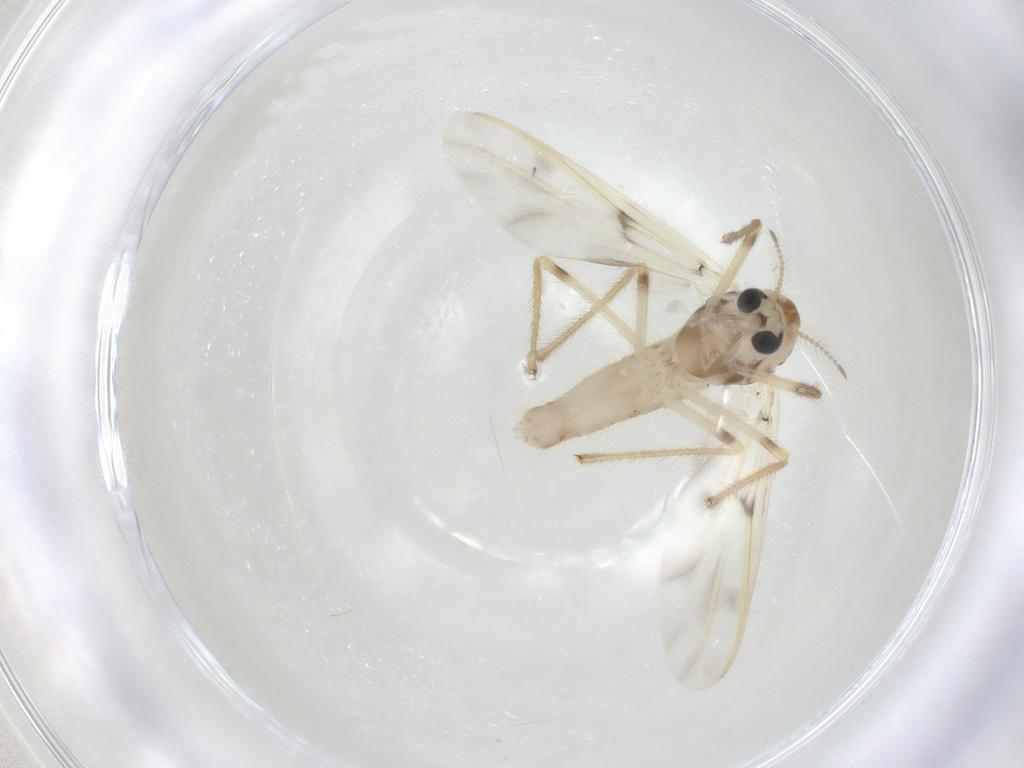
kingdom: Animalia
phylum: Arthropoda
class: Insecta
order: Diptera
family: Chironomidae
